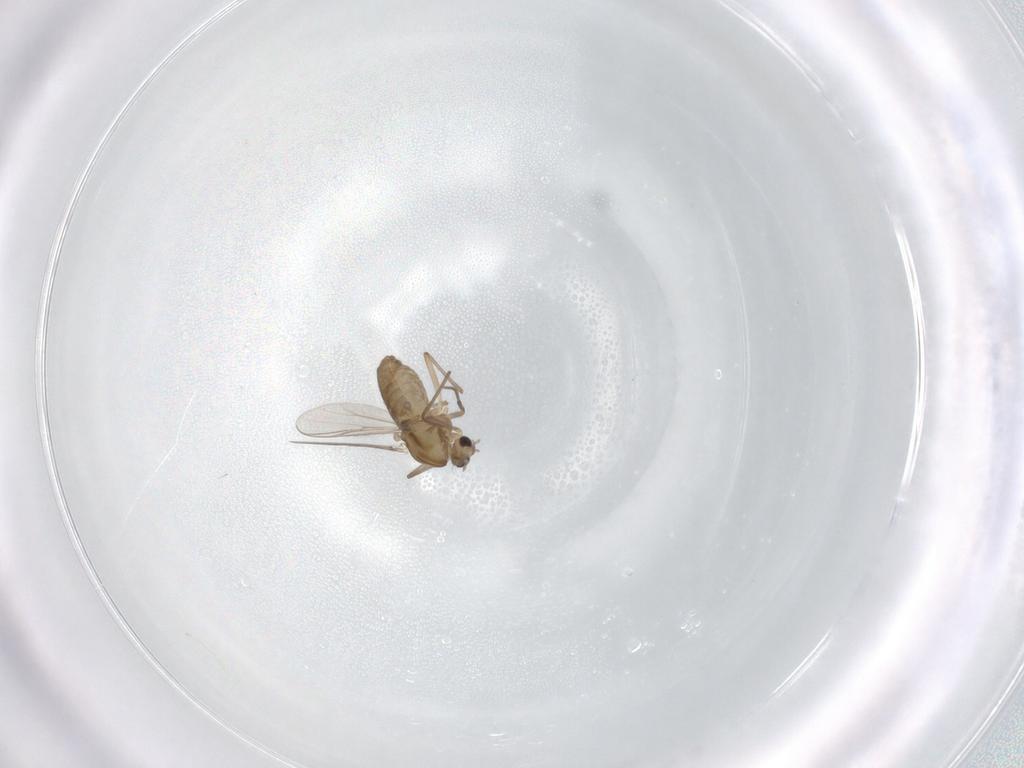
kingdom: Animalia
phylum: Arthropoda
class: Insecta
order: Diptera
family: Chironomidae
